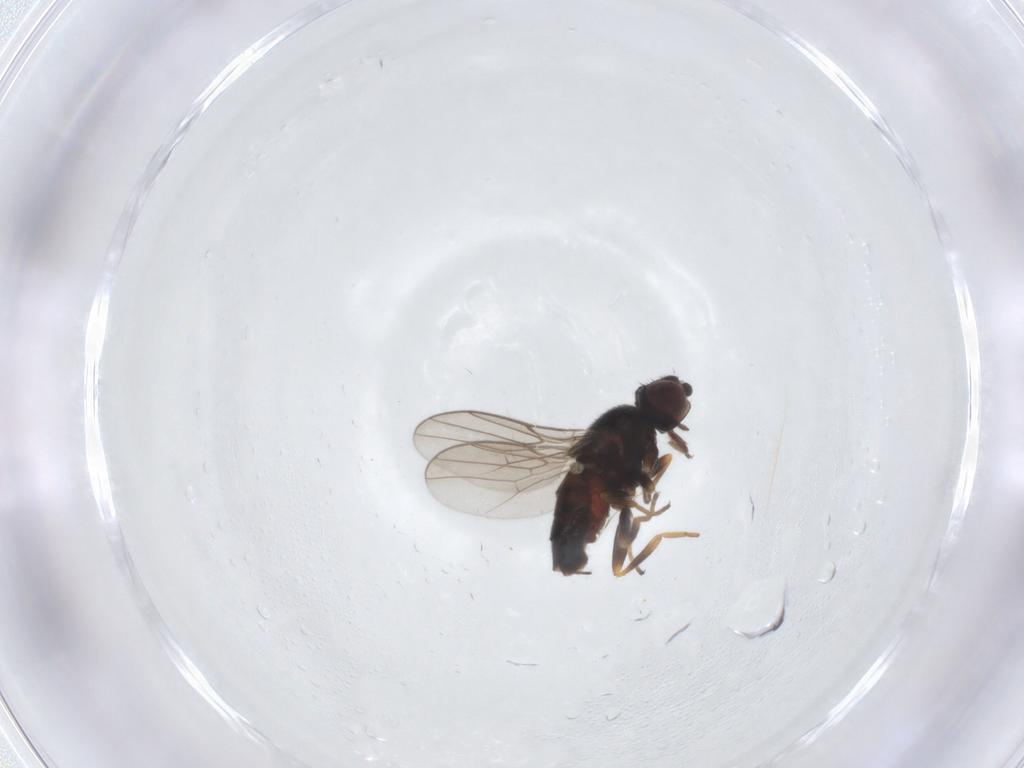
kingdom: Animalia
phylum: Arthropoda
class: Insecta
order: Diptera
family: Chloropidae
